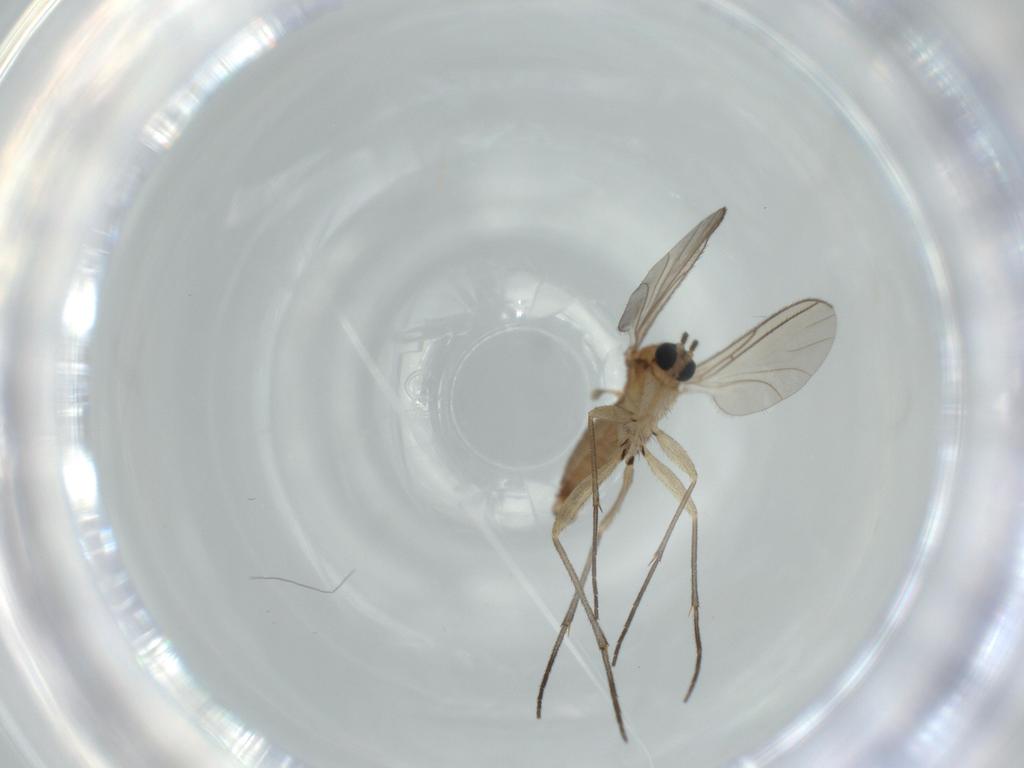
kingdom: Animalia
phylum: Arthropoda
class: Insecta
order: Diptera
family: Sciaridae
